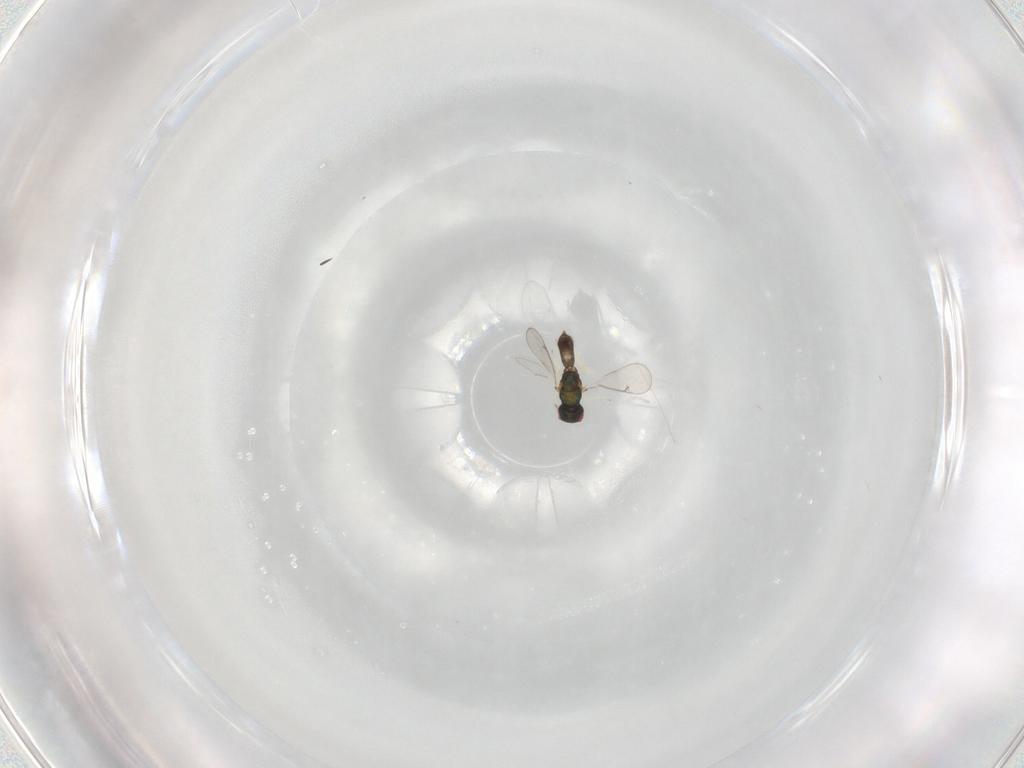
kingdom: Animalia
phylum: Arthropoda
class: Insecta
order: Hymenoptera
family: Eulophidae
